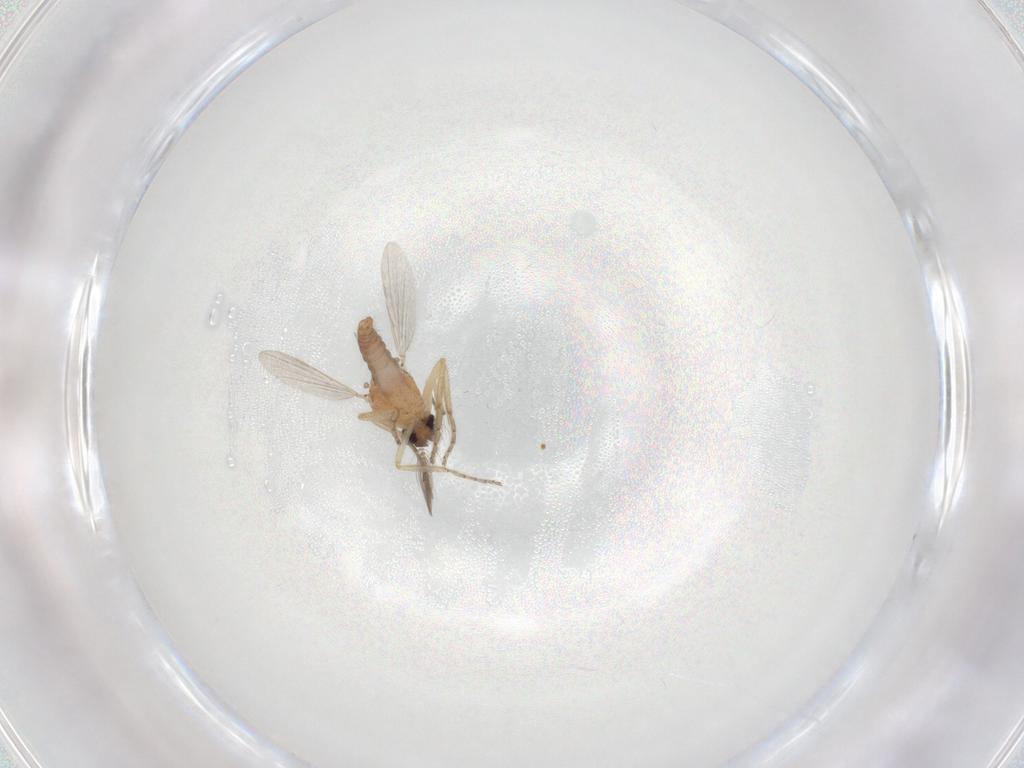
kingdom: Animalia
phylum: Arthropoda
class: Insecta
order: Diptera
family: Ceratopogonidae
